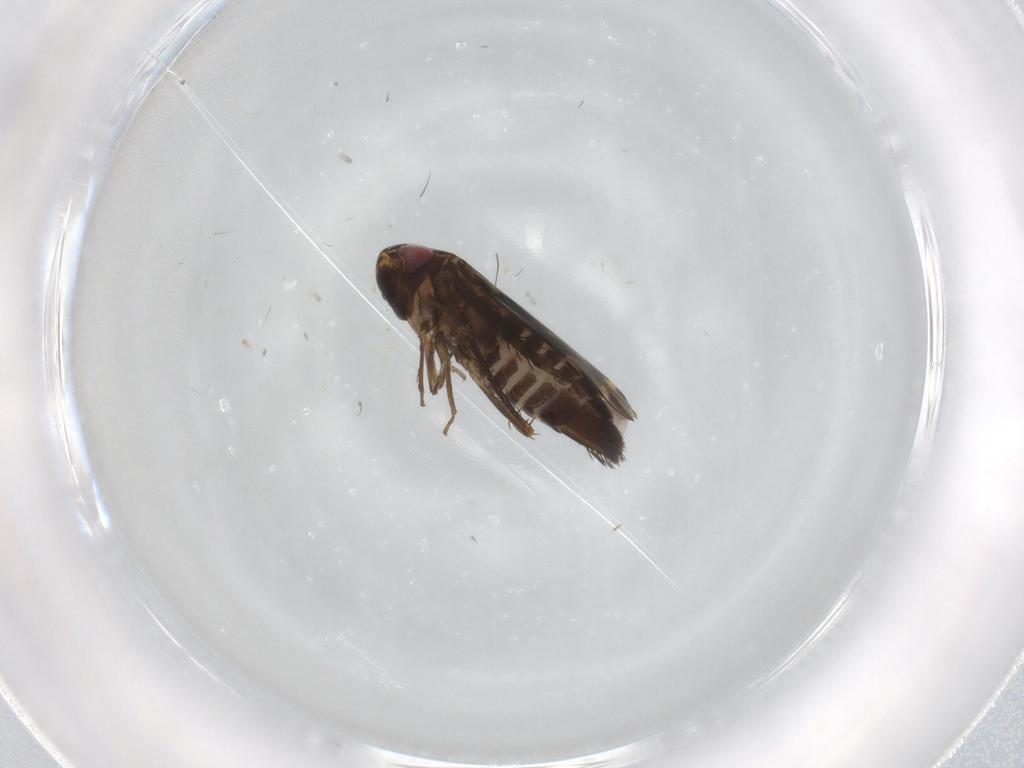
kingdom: Animalia
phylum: Arthropoda
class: Insecta
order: Hemiptera
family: Cicadellidae
